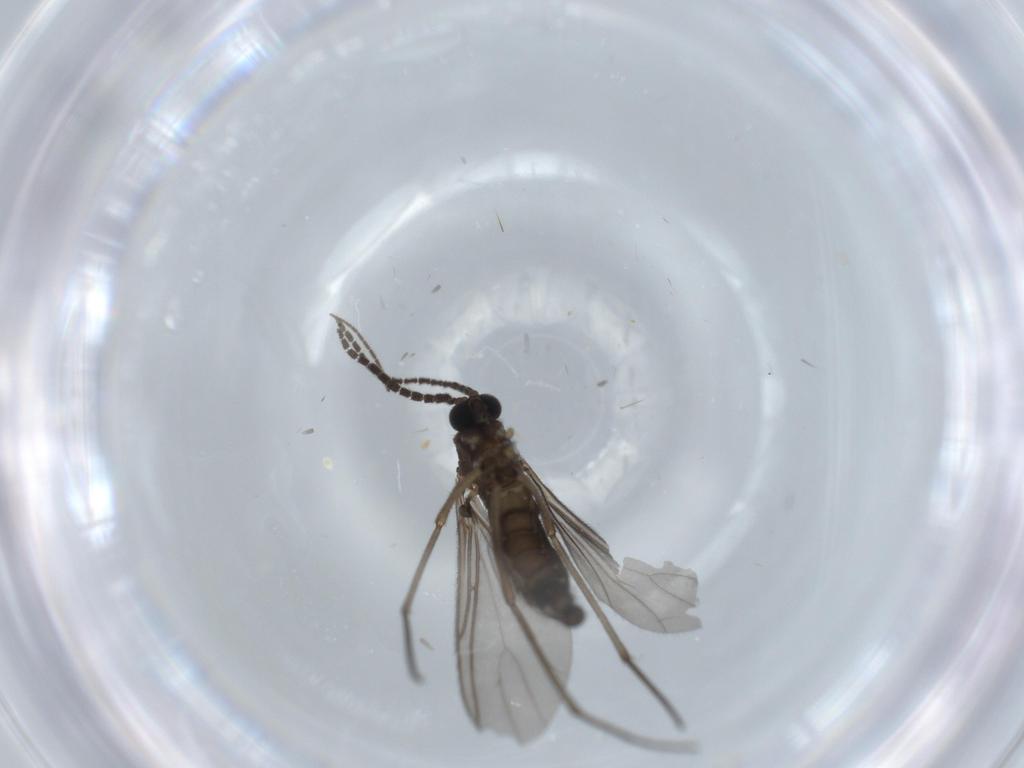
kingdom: Animalia
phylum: Arthropoda
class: Insecta
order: Diptera
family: Sciaridae
